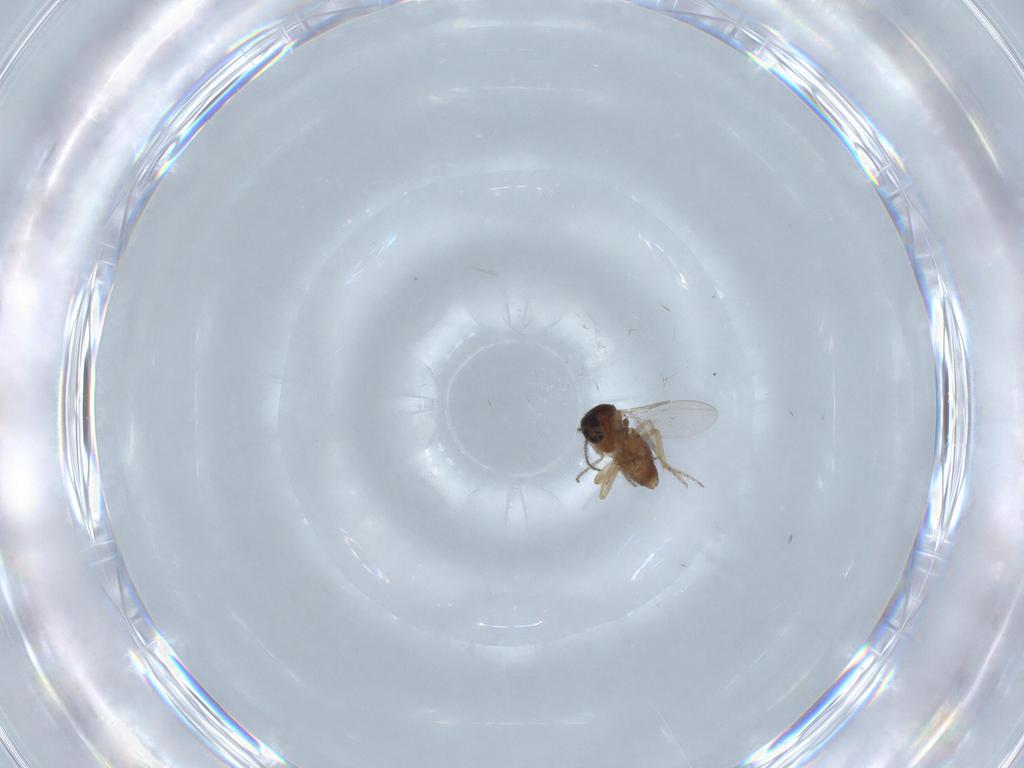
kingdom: Animalia
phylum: Arthropoda
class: Insecta
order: Diptera
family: Ceratopogonidae
